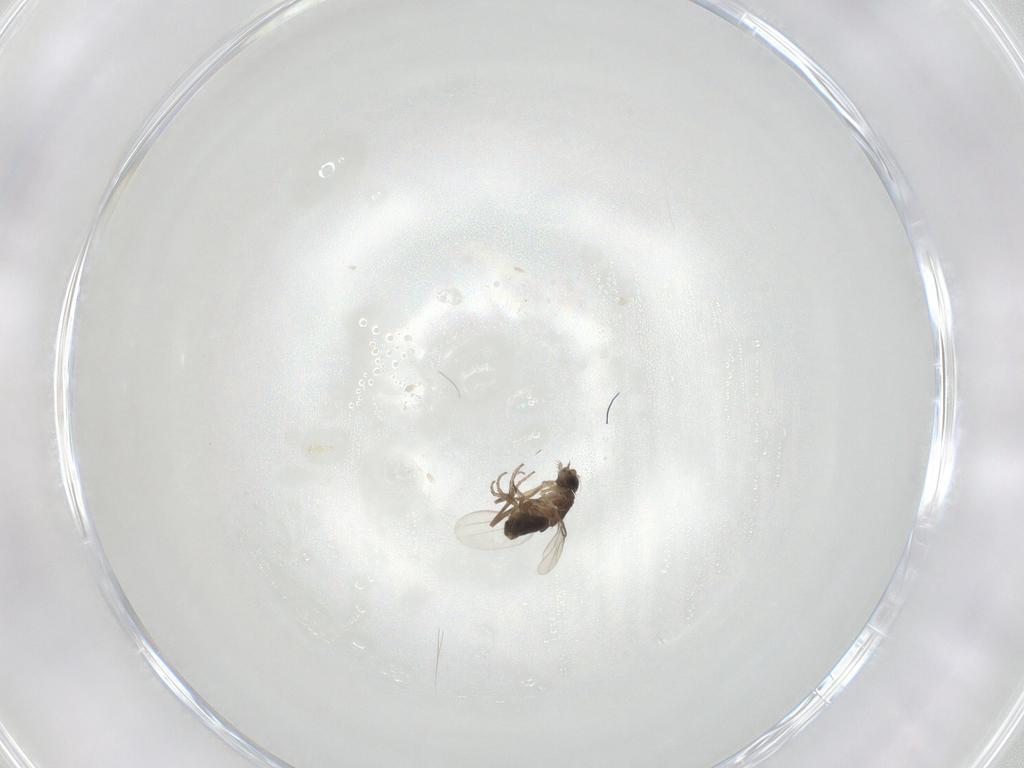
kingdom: Animalia
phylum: Arthropoda
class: Insecta
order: Diptera
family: Phoridae
